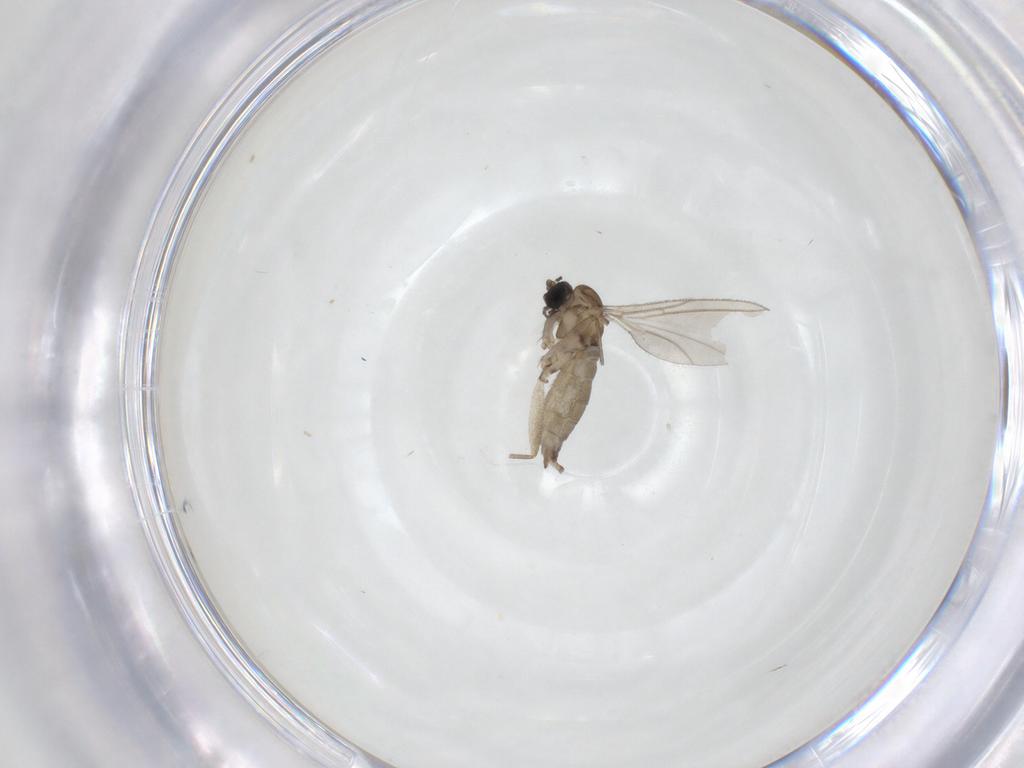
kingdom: Animalia
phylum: Arthropoda
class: Insecta
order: Diptera
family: Sciaridae
